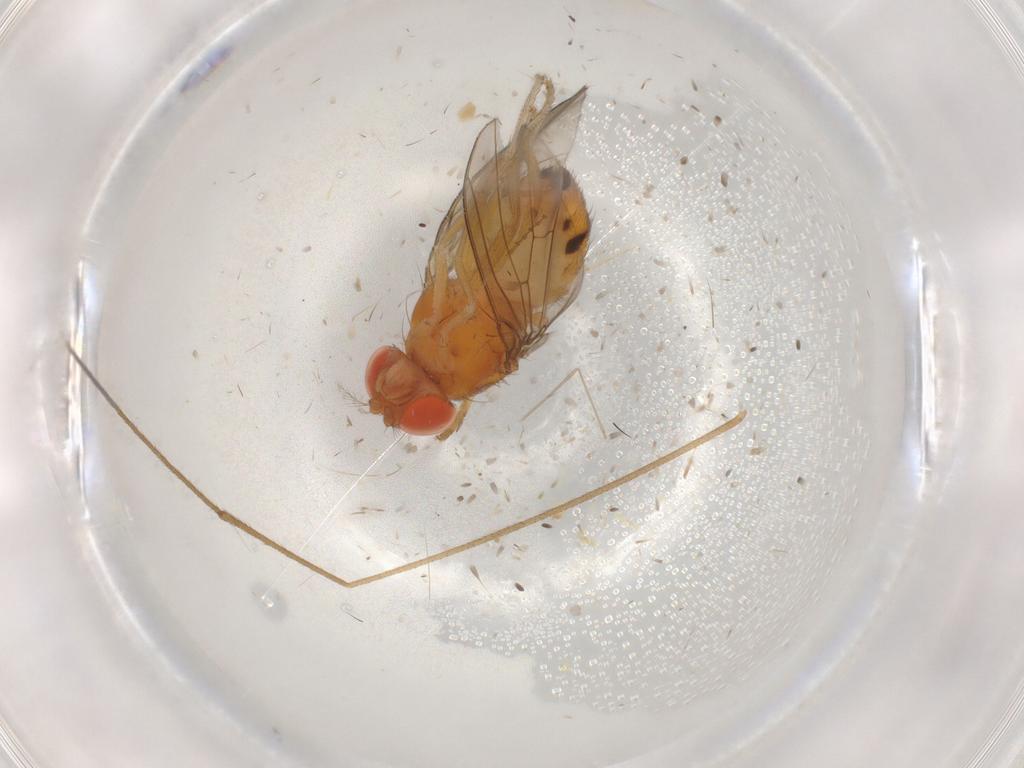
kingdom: Animalia
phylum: Arthropoda
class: Insecta
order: Diptera
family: Drosophilidae
